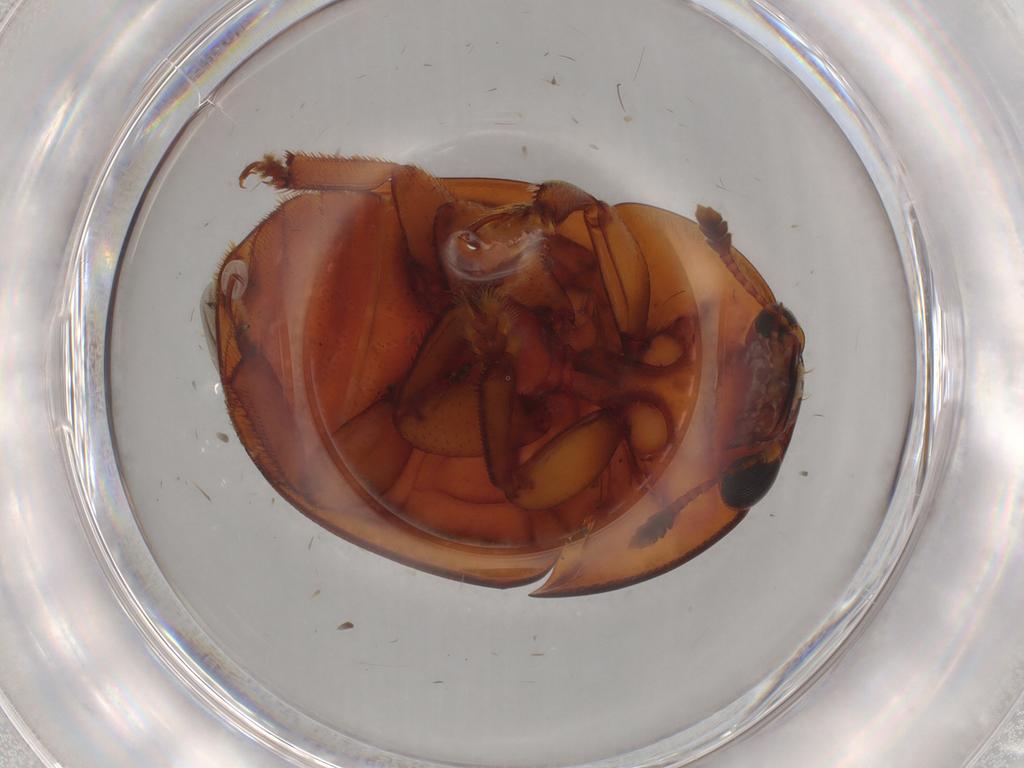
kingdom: Animalia
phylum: Arthropoda
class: Insecta
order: Coleoptera
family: Nitidulidae
